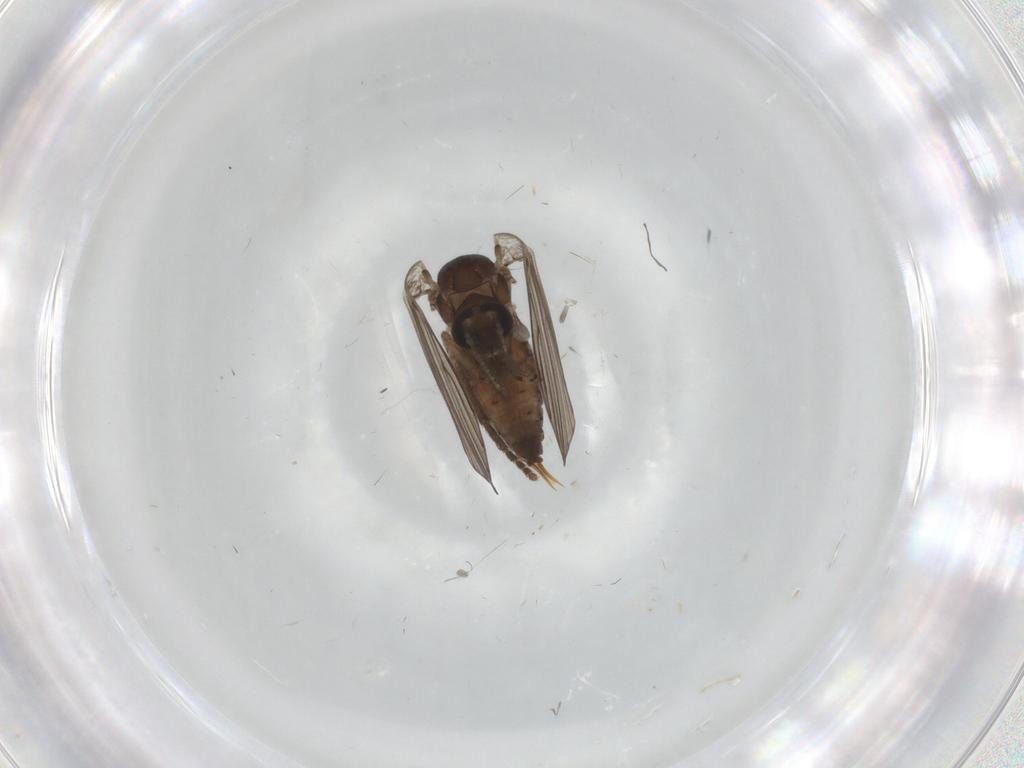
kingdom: Animalia
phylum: Arthropoda
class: Insecta
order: Diptera
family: Psychodidae
